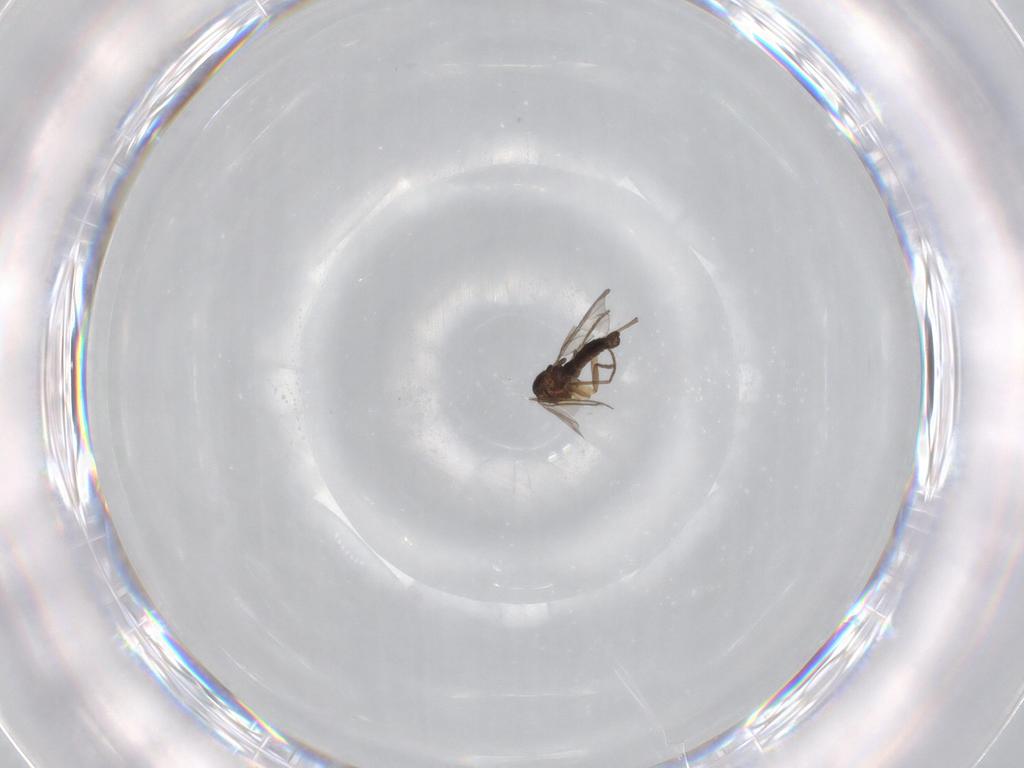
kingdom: Animalia
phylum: Arthropoda
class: Insecta
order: Diptera
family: Sciaridae
